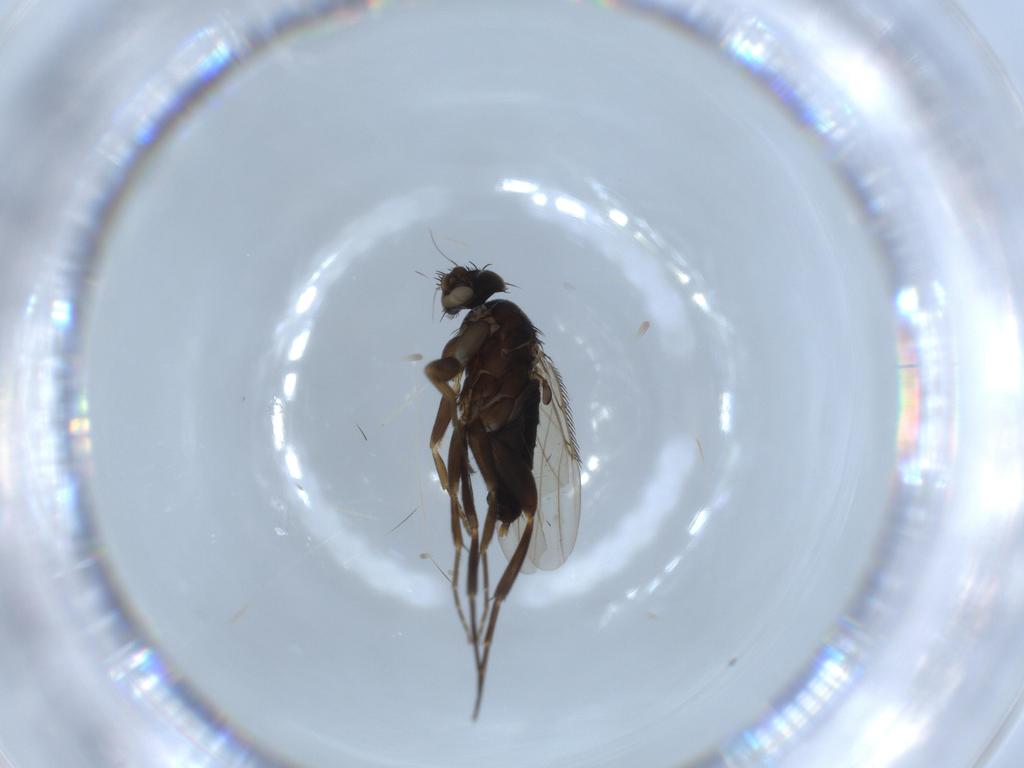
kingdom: Animalia
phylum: Arthropoda
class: Insecta
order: Diptera
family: Phoridae
